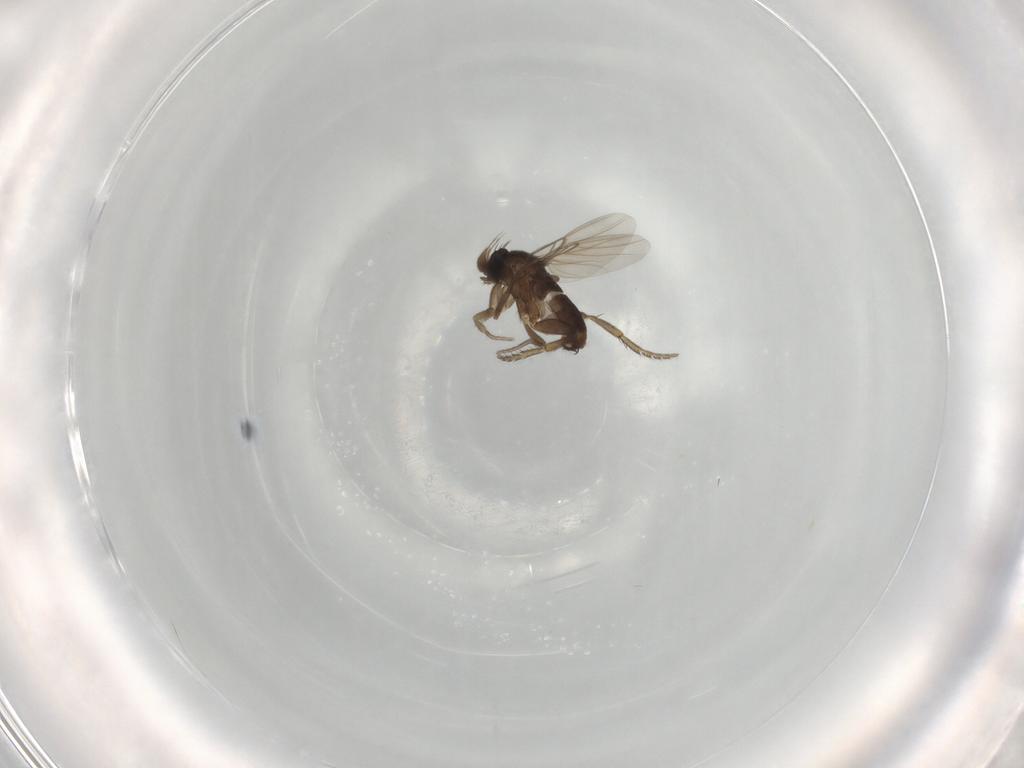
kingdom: Animalia
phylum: Arthropoda
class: Insecta
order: Diptera
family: Phoridae
